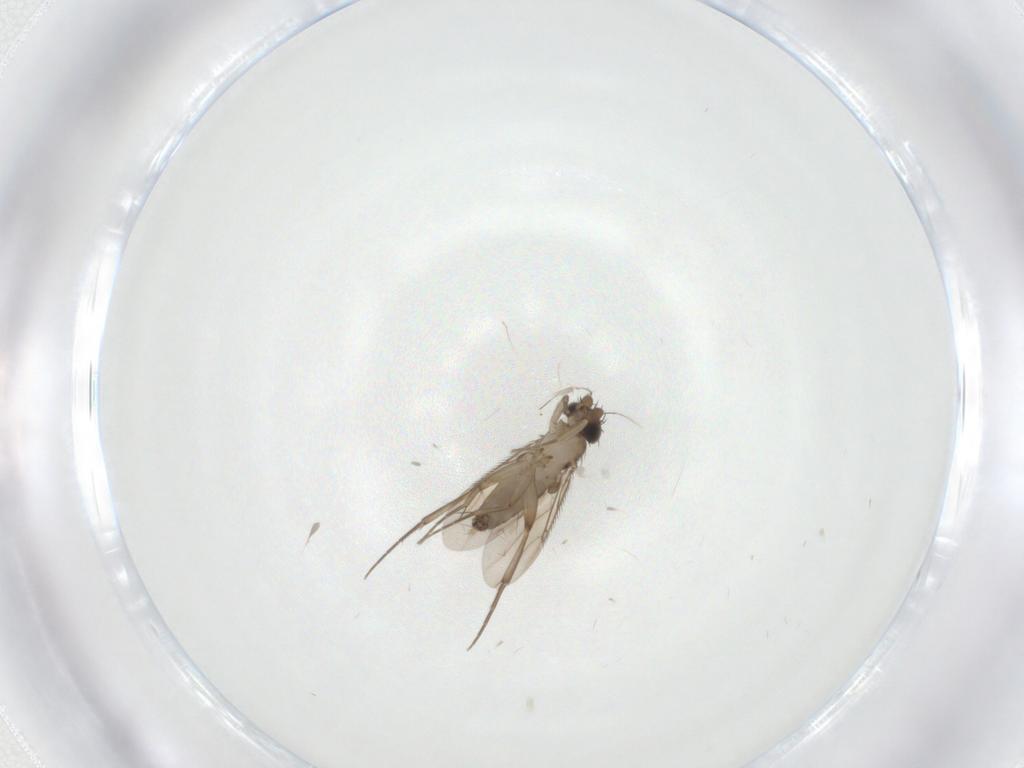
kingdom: Animalia
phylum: Arthropoda
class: Insecta
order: Diptera
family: Phoridae
